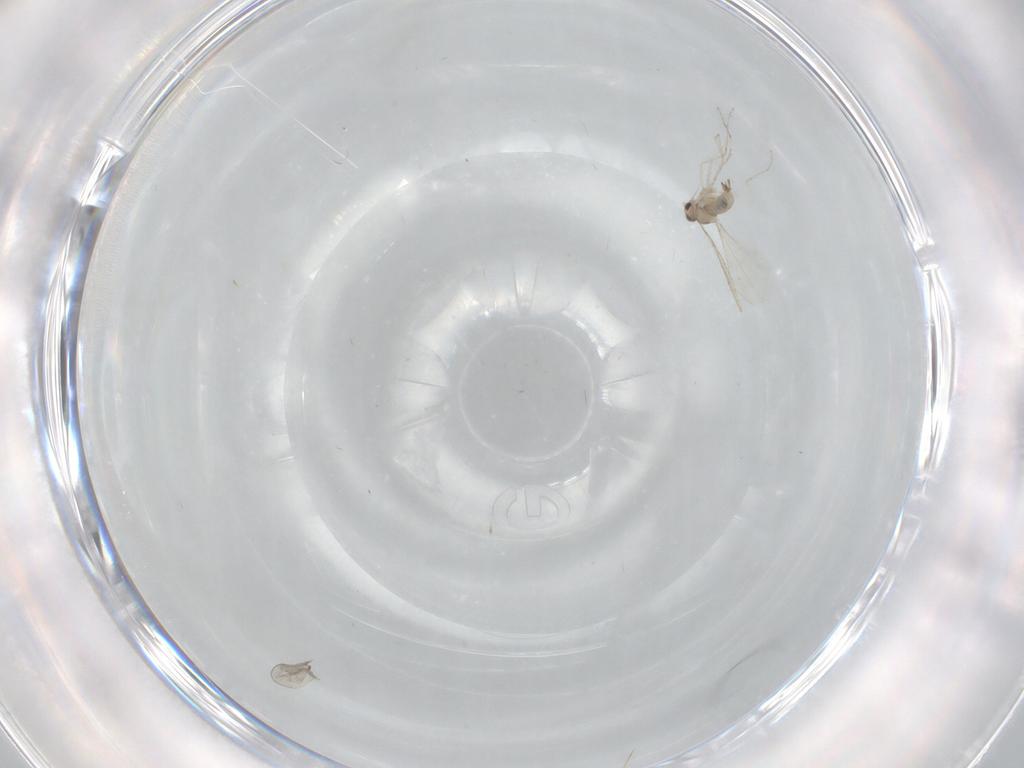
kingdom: Animalia
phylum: Arthropoda
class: Insecta
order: Diptera
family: Cecidomyiidae
